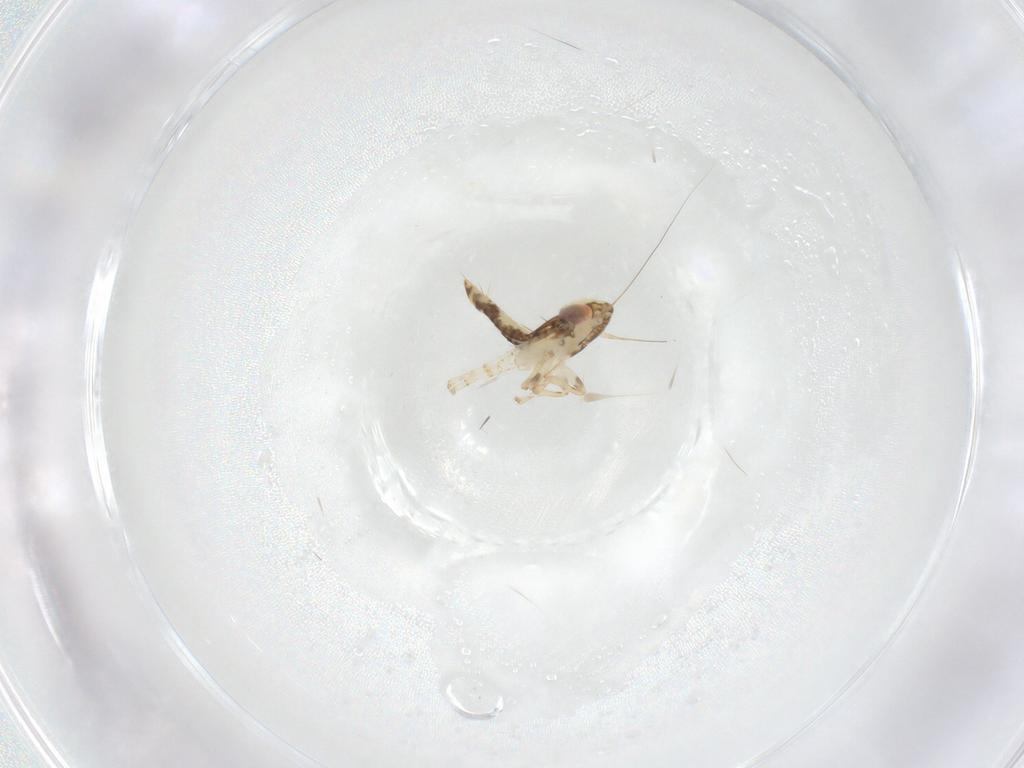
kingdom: Animalia
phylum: Arthropoda
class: Insecta
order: Hemiptera
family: Cicadellidae
